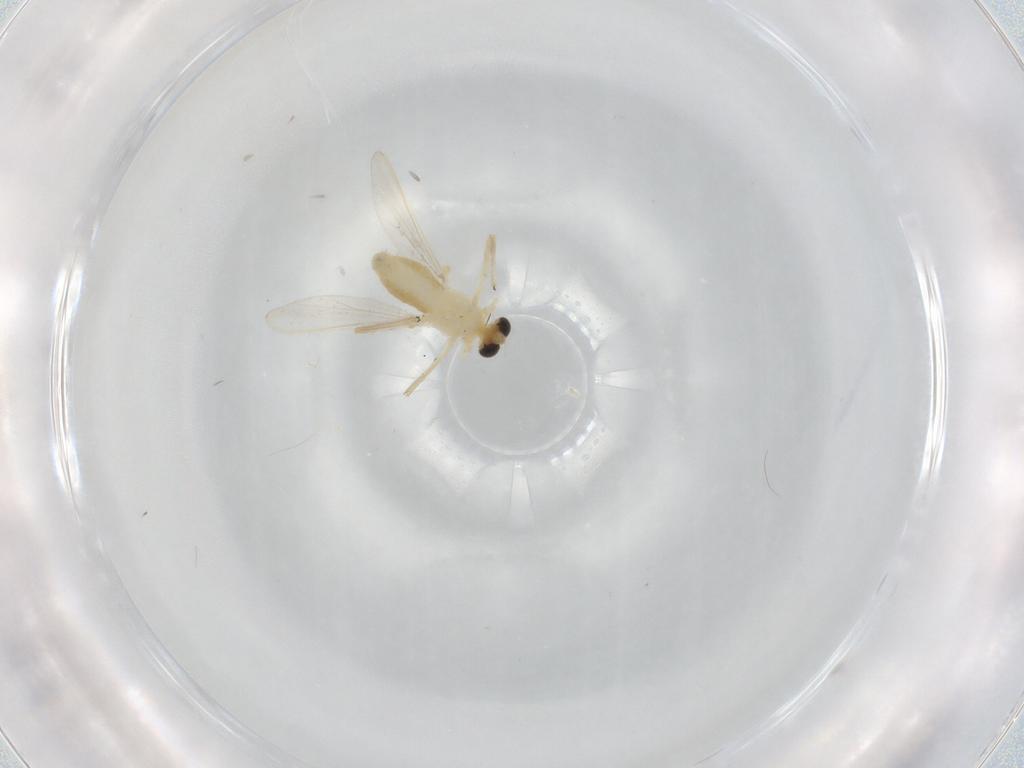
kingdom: Animalia
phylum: Arthropoda
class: Insecta
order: Diptera
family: Chironomidae
